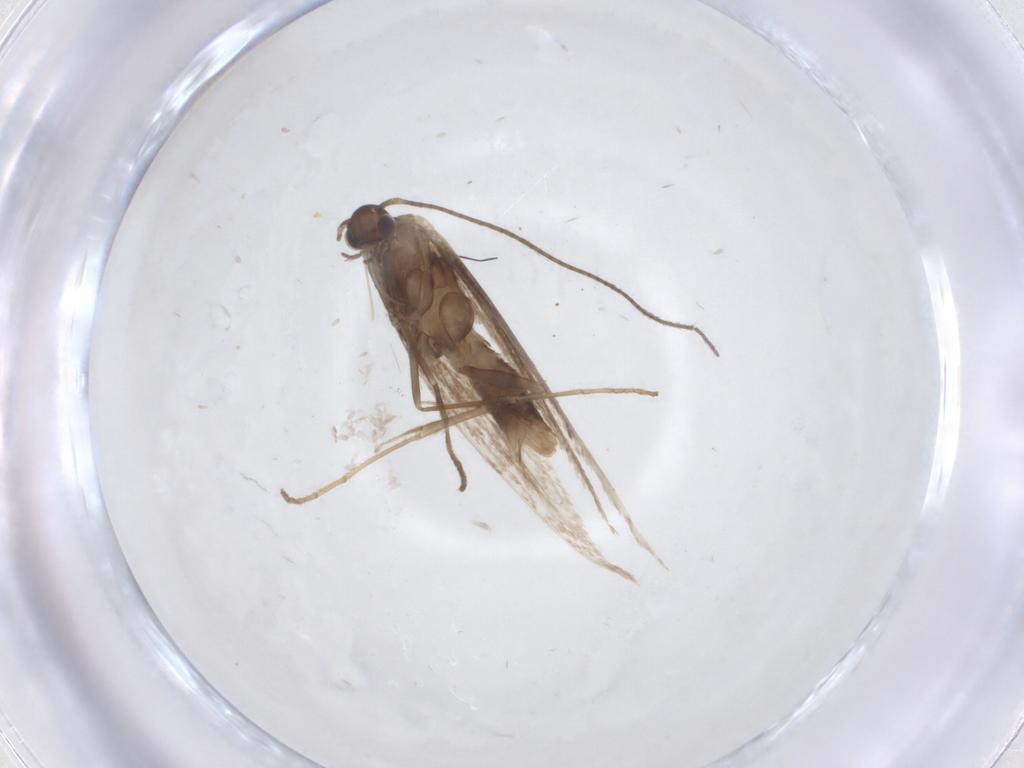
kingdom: Animalia
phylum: Arthropoda
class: Insecta
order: Lepidoptera
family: Gracillariidae
